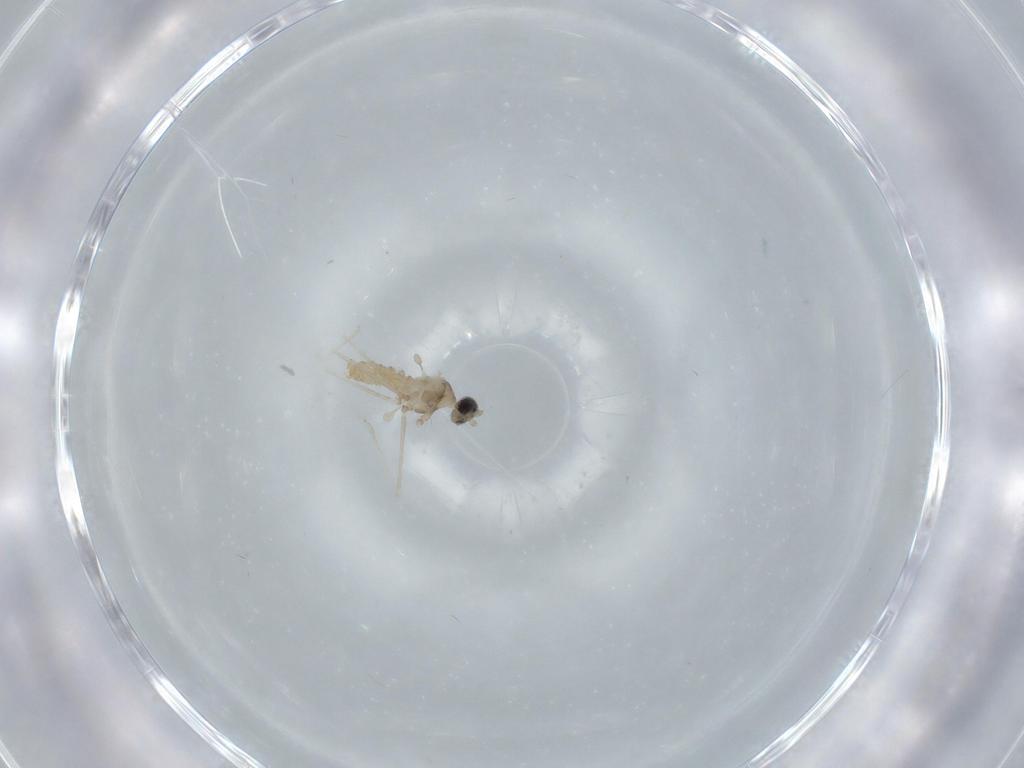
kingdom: Animalia
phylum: Arthropoda
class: Insecta
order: Diptera
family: Cecidomyiidae
